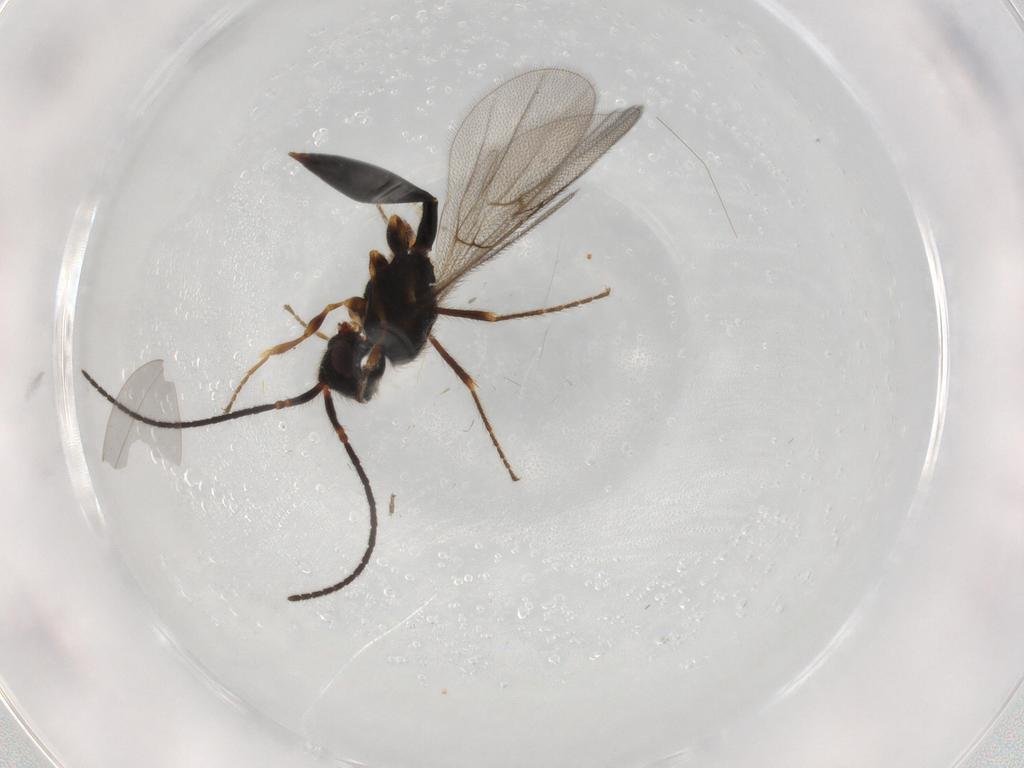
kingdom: Animalia
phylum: Arthropoda
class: Insecta
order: Hymenoptera
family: Diapriidae
